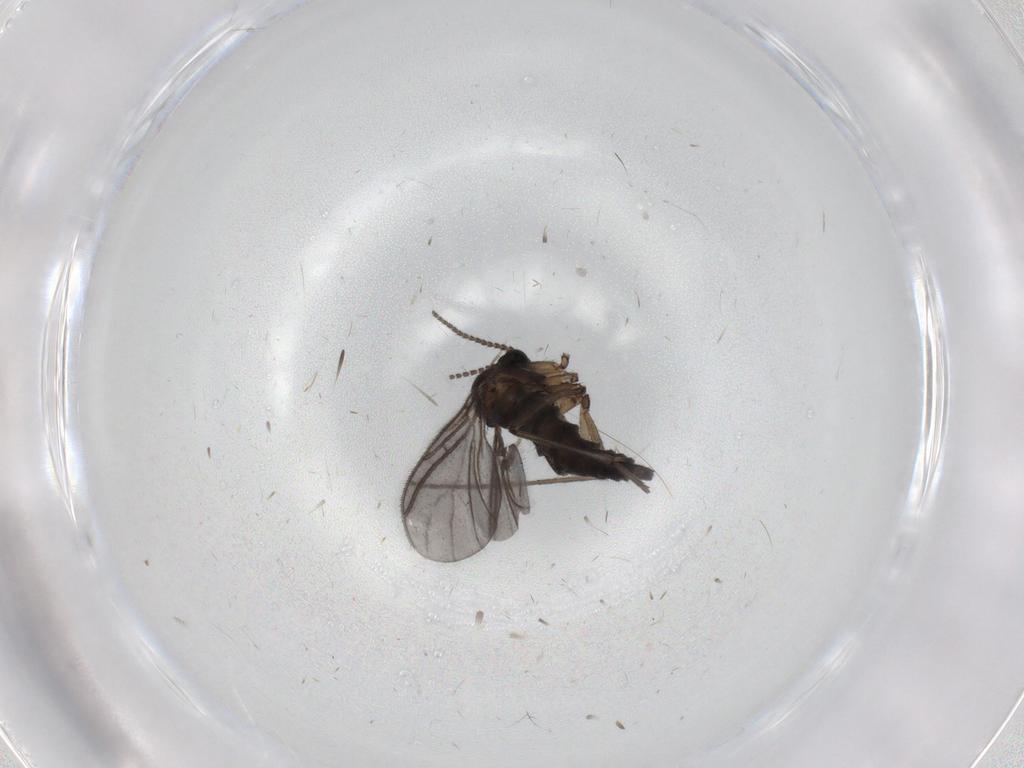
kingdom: Animalia
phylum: Arthropoda
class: Insecta
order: Diptera
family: Sciaridae
